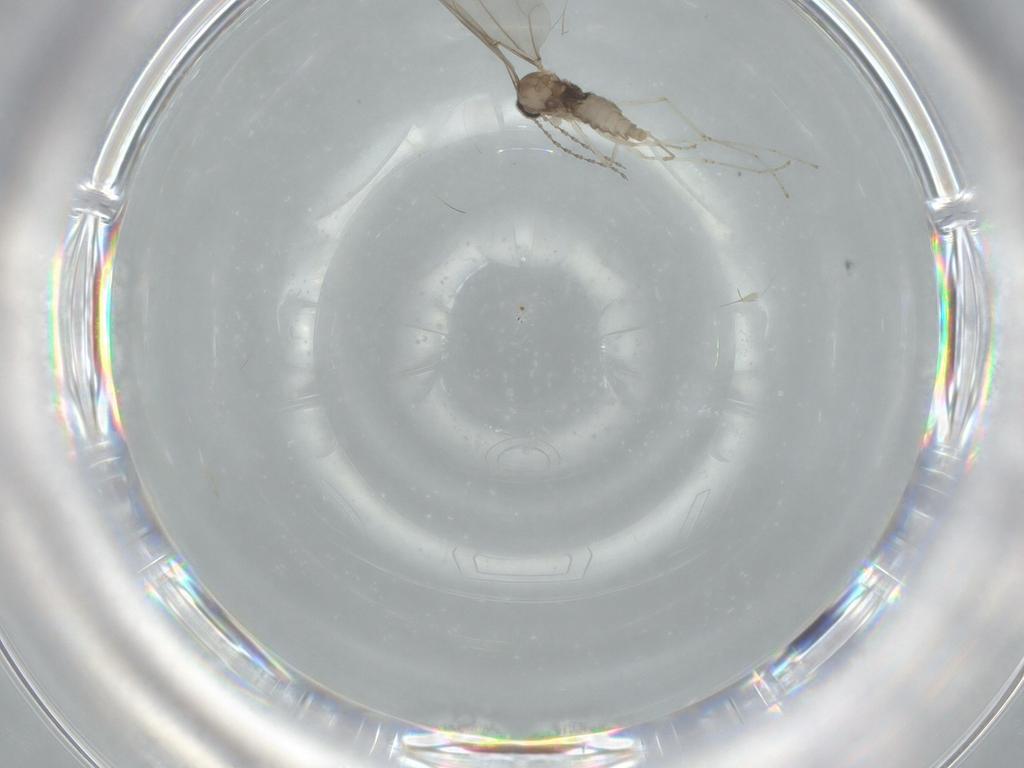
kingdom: Animalia
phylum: Arthropoda
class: Insecta
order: Diptera
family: Cecidomyiidae
